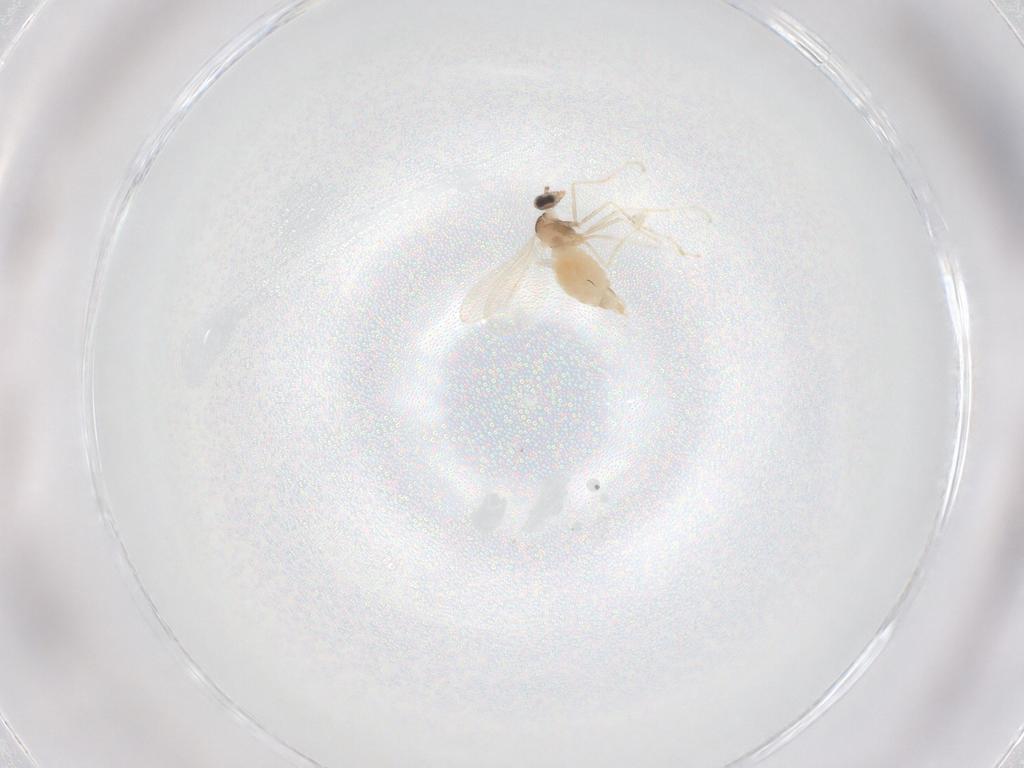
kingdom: Animalia
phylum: Arthropoda
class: Insecta
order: Diptera
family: Cecidomyiidae
